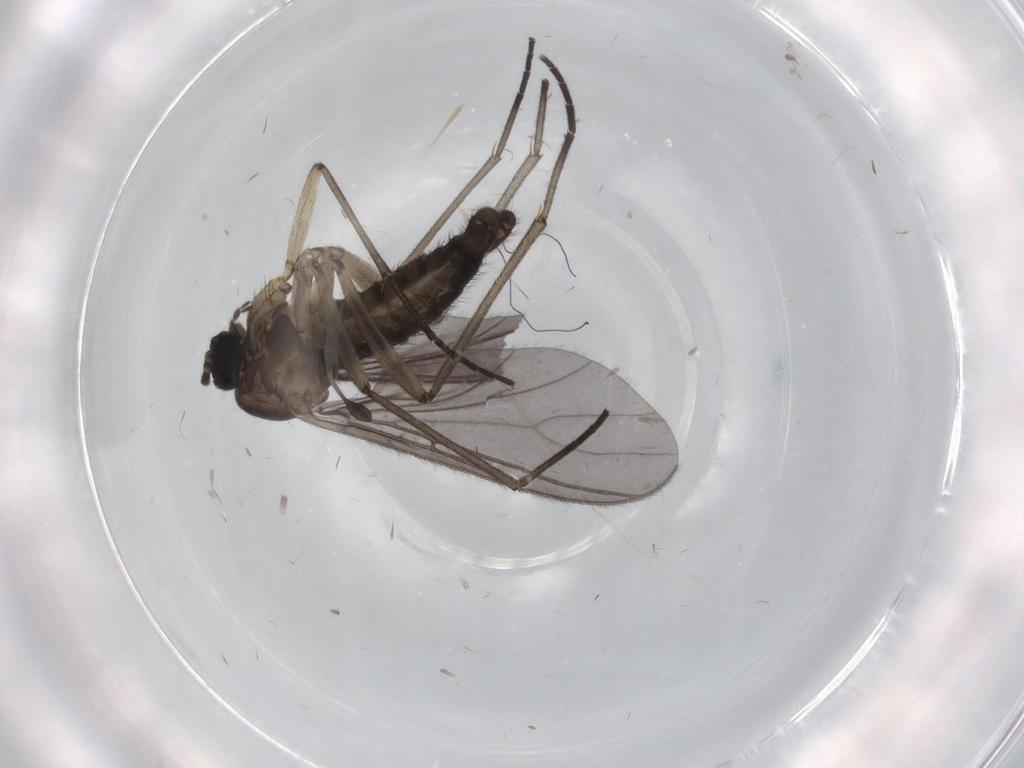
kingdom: Animalia
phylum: Arthropoda
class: Insecta
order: Diptera
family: Sciaridae
